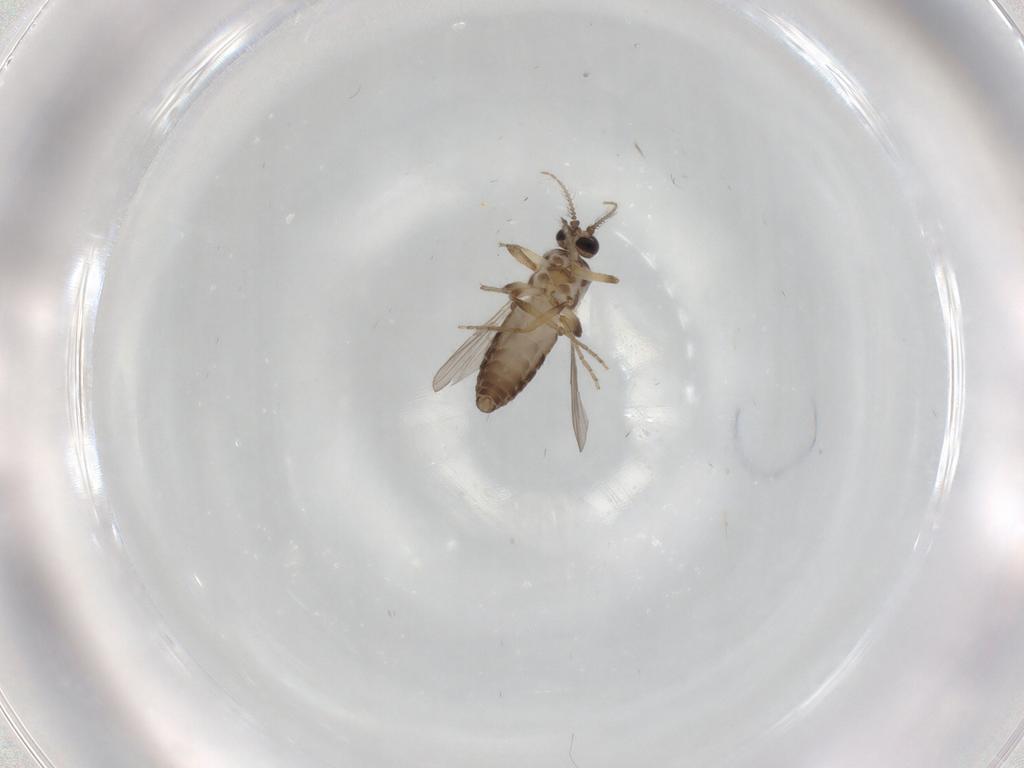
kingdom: Animalia
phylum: Arthropoda
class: Insecta
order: Diptera
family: Ceratopogonidae
